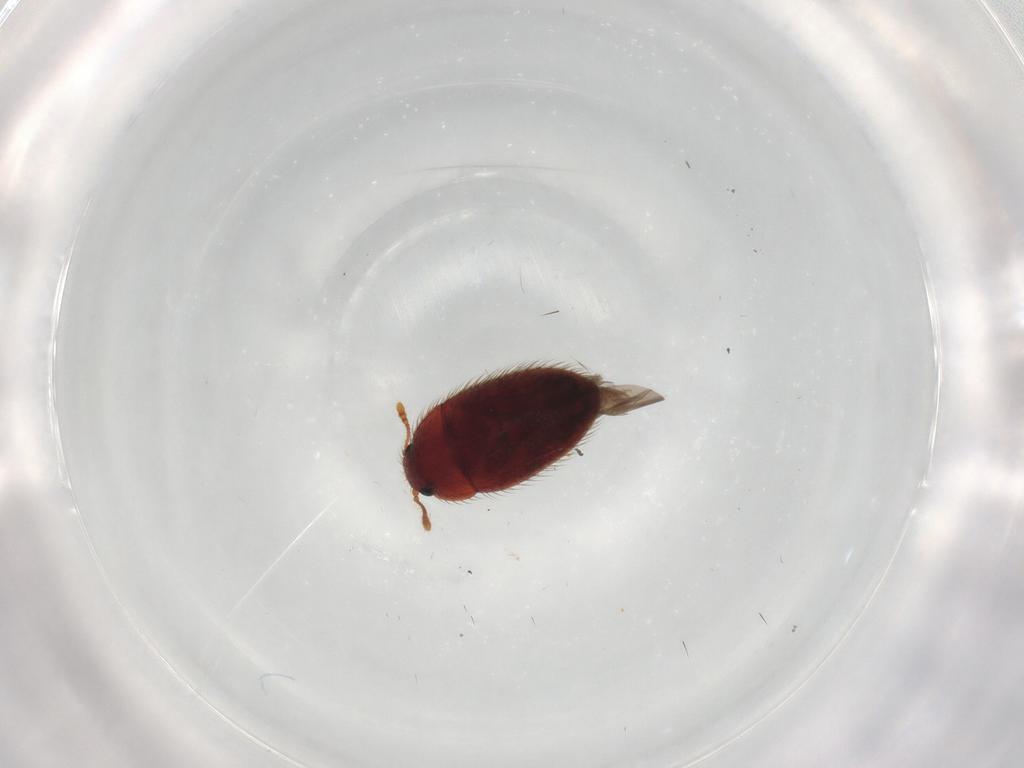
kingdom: Animalia
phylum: Arthropoda
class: Insecta
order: Coleoptera
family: Biphyllidae
